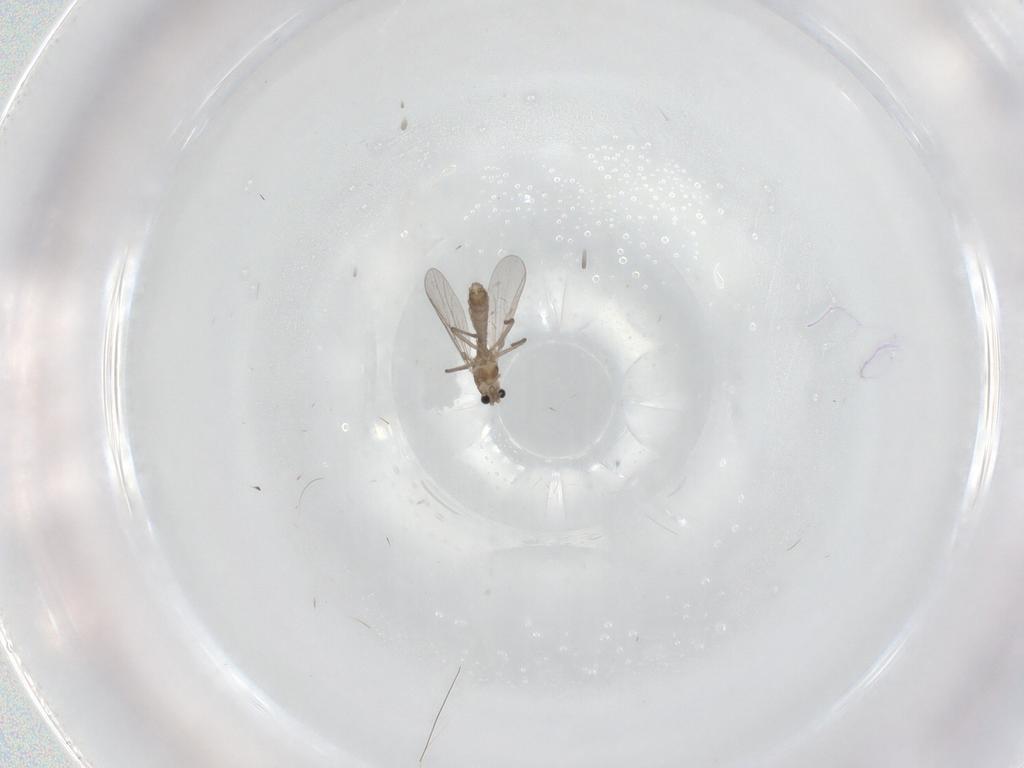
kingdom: Animalia
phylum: Arthropoda
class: Insecta
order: Diptera
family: Chironomidae
